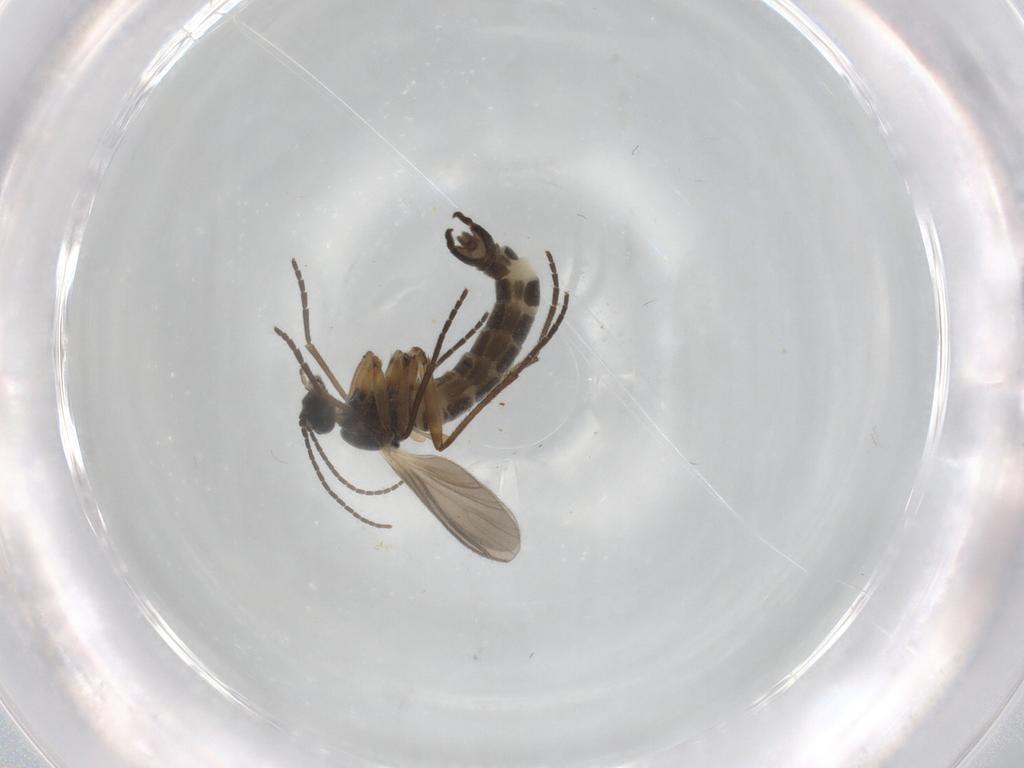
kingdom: Animalia
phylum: Arthropoda
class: Insecta
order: Diptera
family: Sciaridae
